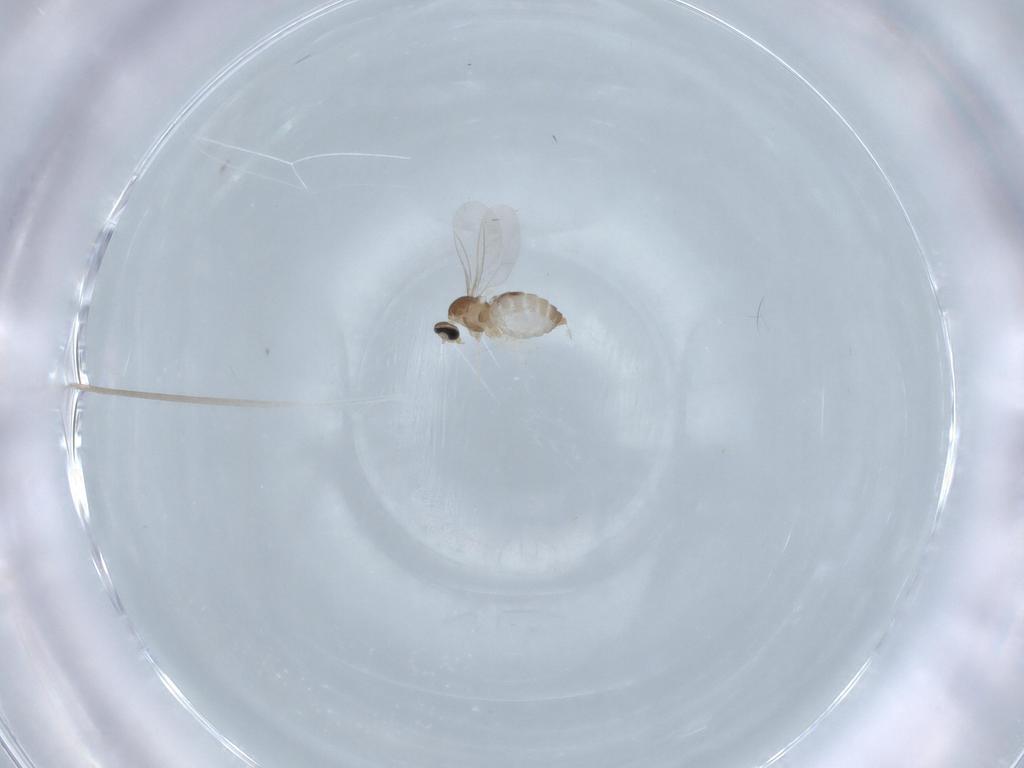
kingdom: Animalia
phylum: Arthropoda
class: Insecta
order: Diptera
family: Cecidomyiidae
